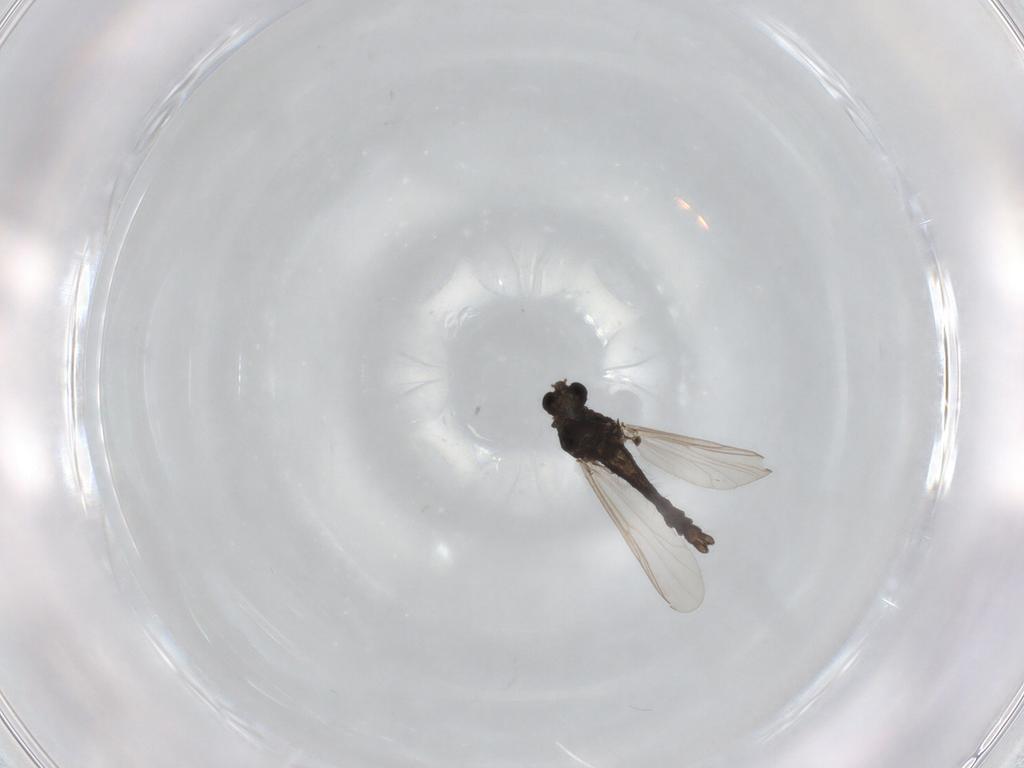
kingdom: Animalia
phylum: Arthropoda
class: Insecta
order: Diptera
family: Chironomidae
